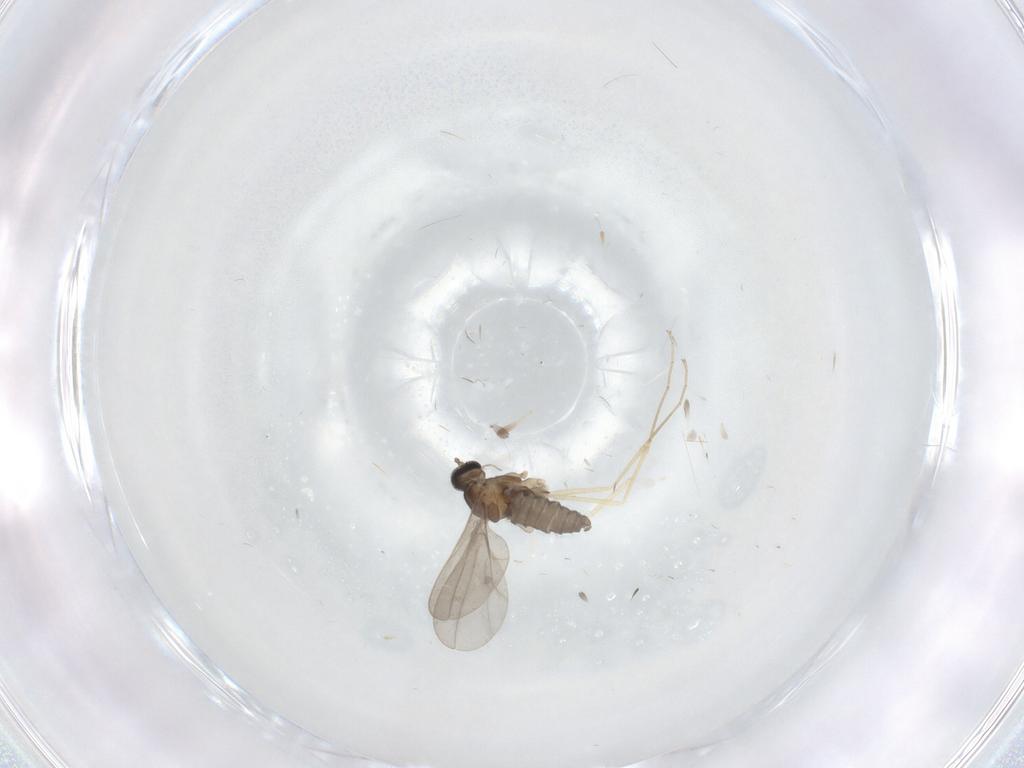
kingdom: Animalia
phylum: Arthropoda
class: Insecta
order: Diptera
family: Cecidomyiidae
